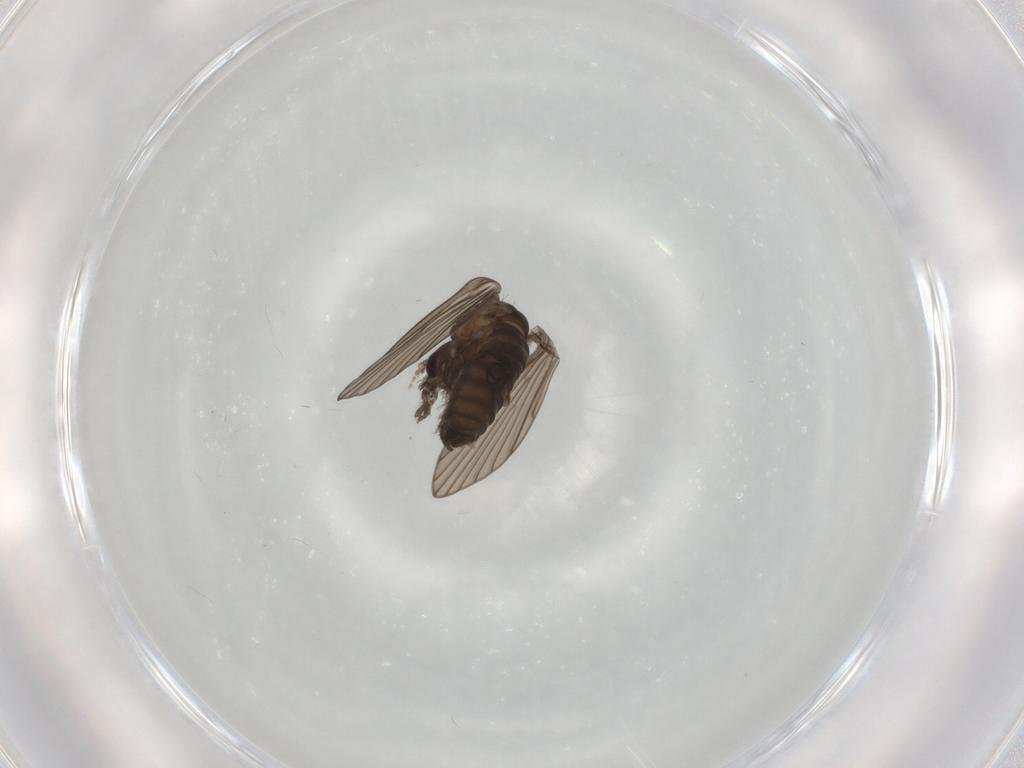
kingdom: Animalia
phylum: Arthropoda
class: Insecta
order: Diptera
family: Psychodidae
